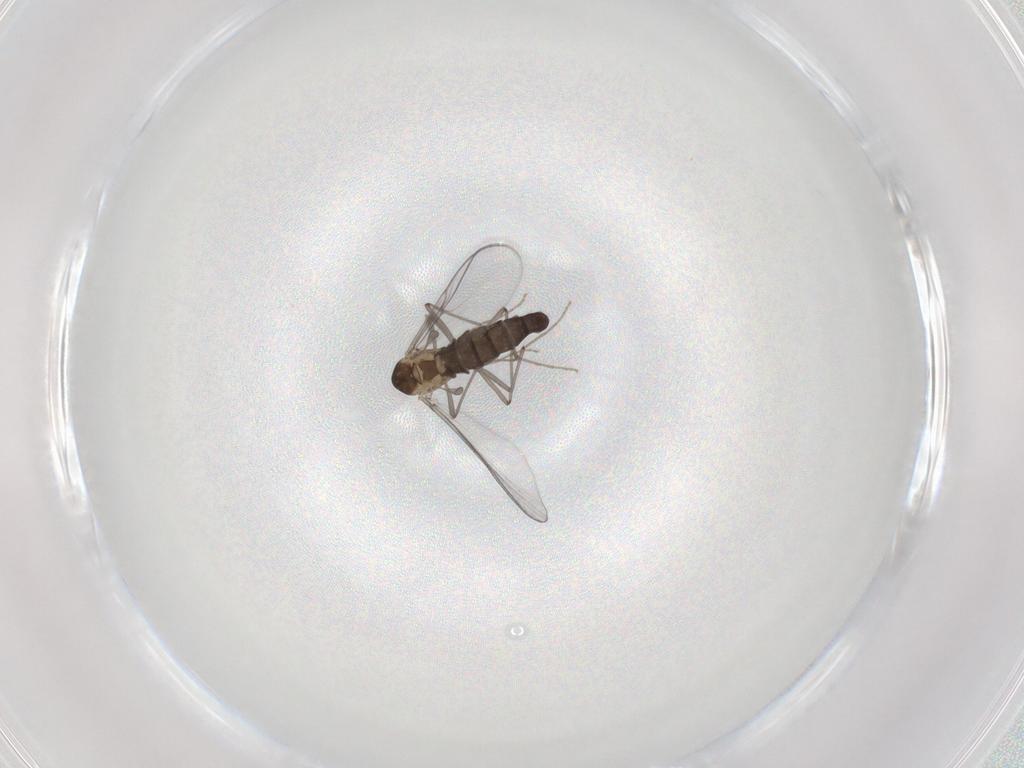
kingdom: Animalia
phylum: Arthropoda
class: Insecta
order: Diptera
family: Chironomidae
